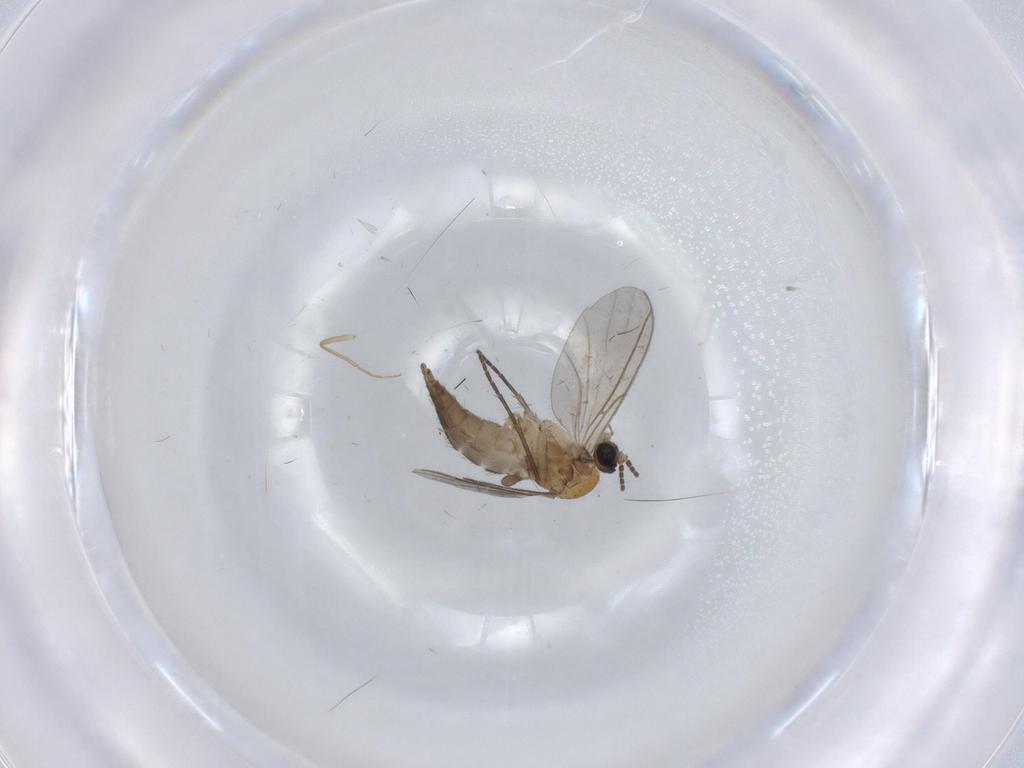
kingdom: Animalia
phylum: Arthropoda
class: Insecta
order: Diptera
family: Sciaridae
